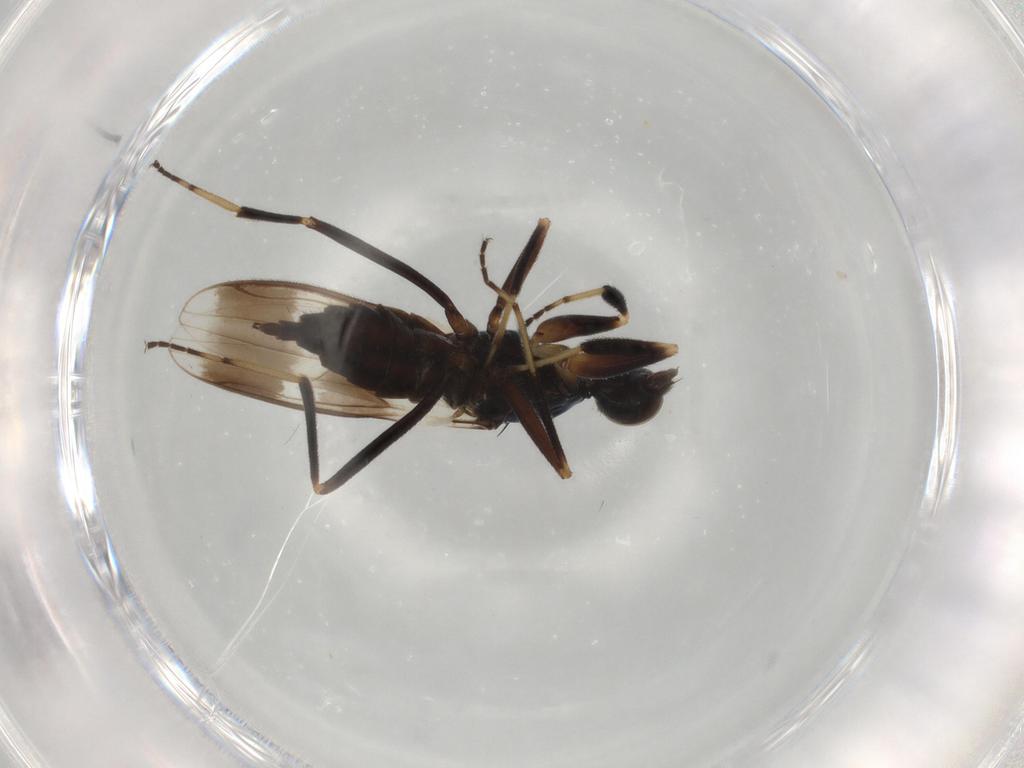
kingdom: Animalia
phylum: Arthropoda
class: Insecta
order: Diptera
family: Hybotidae
